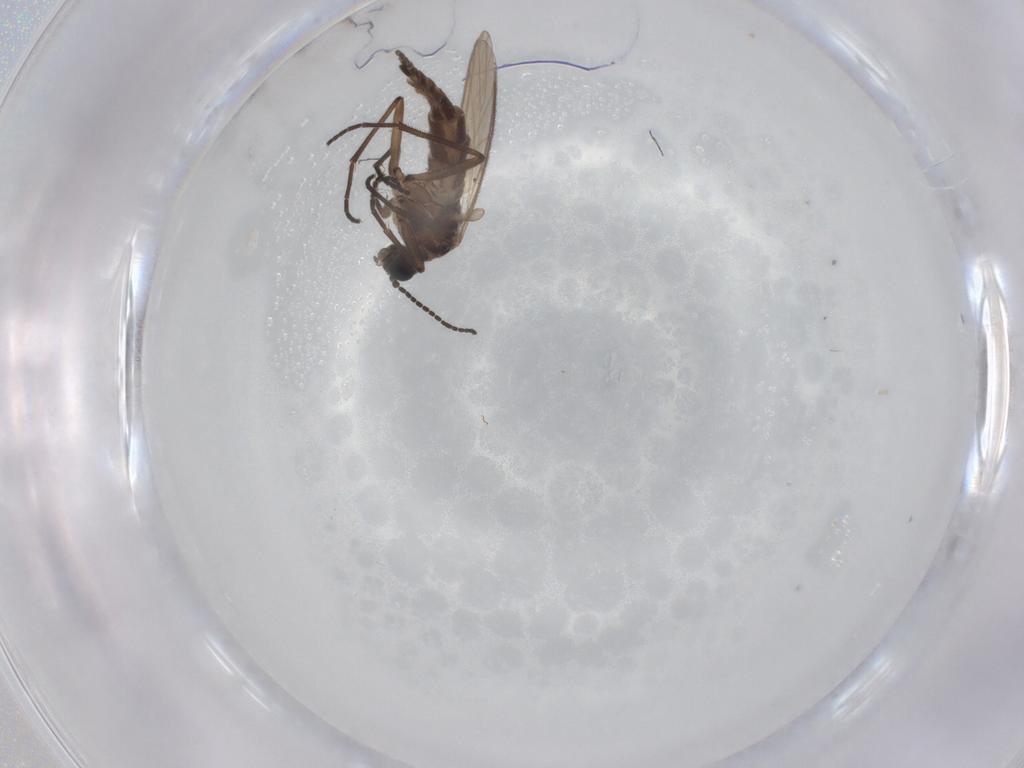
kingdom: Animalia
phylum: Arthropoda
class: Insecta
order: Diptera
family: Sciaridae
